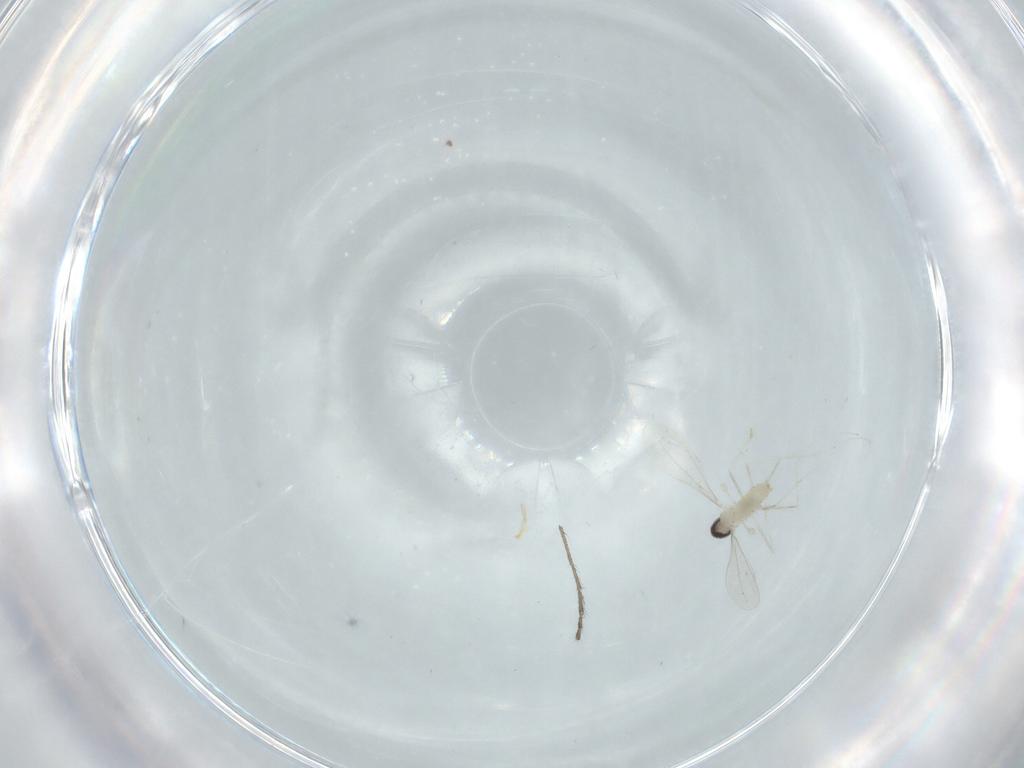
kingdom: Animalia
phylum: Arthropoda
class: Insecta
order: Diptera
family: Cecidomyiidae
